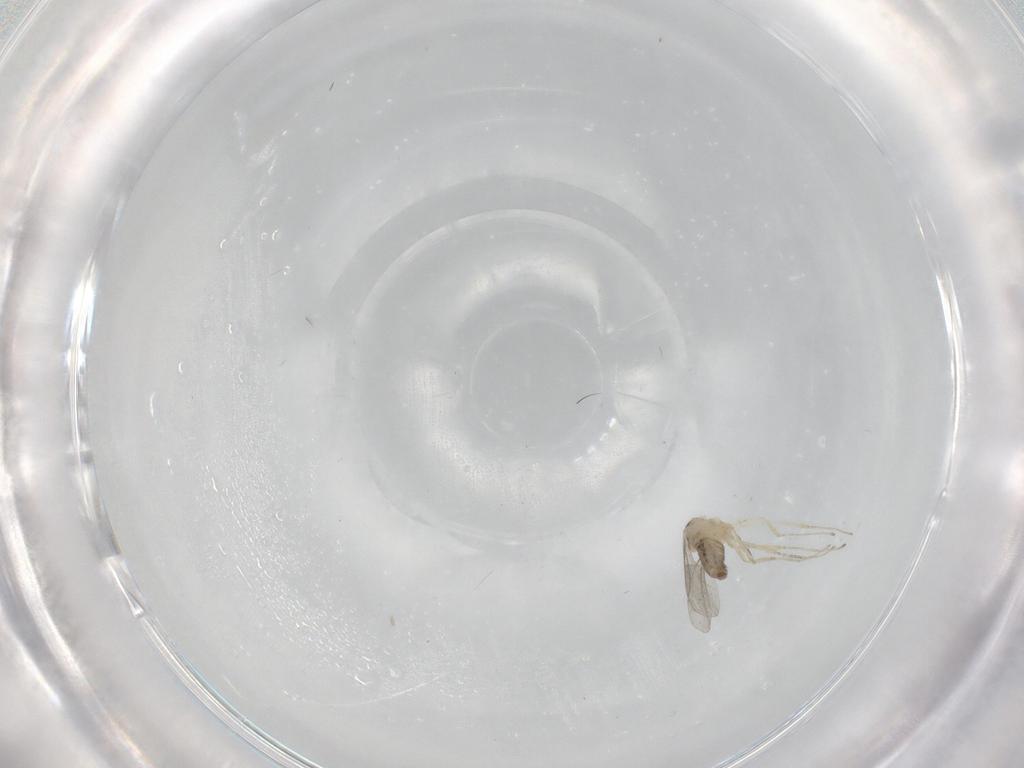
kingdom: Animalia
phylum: Arthropoda
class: Insecta
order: Diptera
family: Cecidomyiidae
